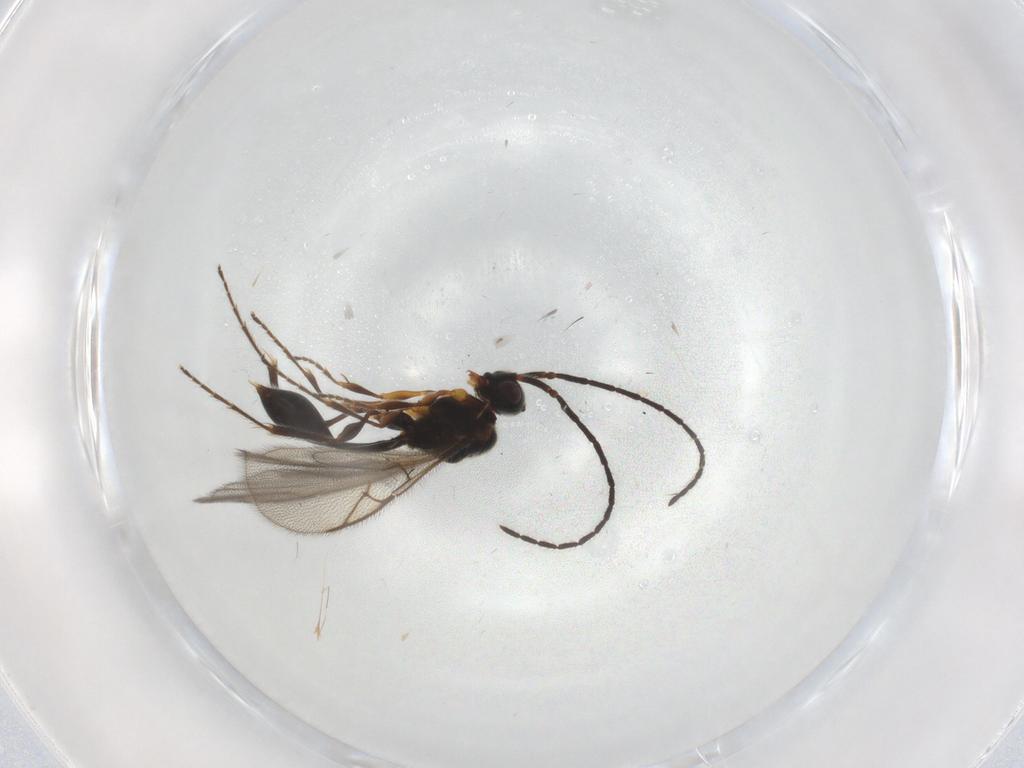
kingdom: Animalia
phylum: Arthropoda
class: Insecta
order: Hymenoptera
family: Diapriidae
